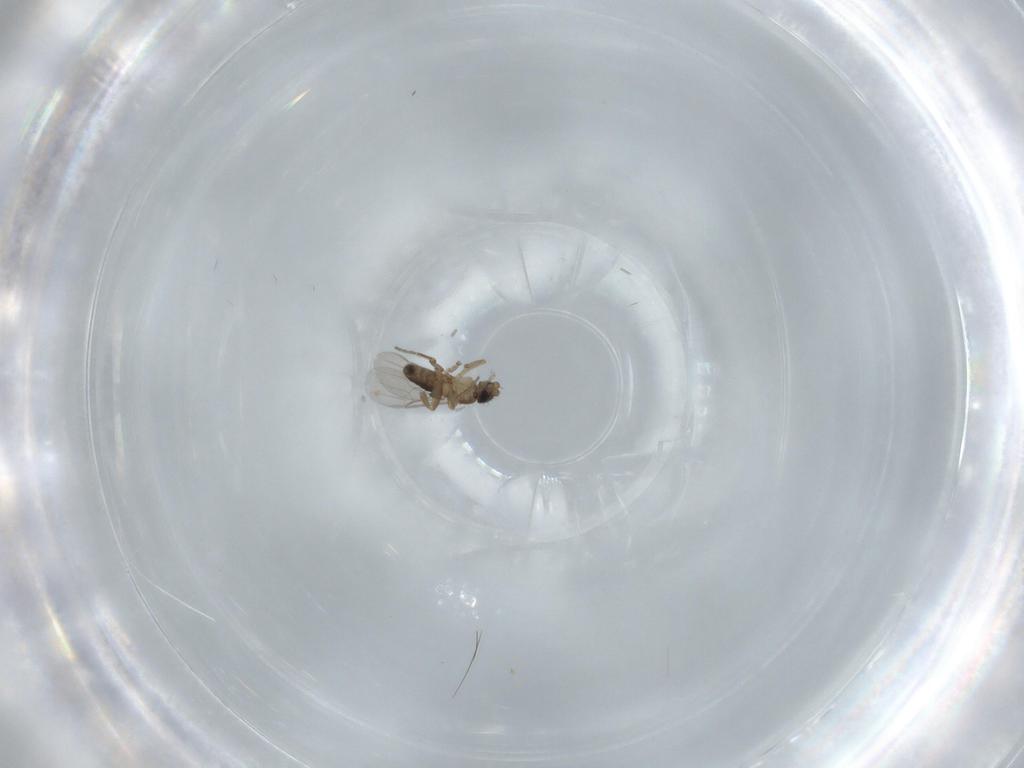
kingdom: Animalia
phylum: Arthropoda
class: Insecta
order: Diptera
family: Phoridae
